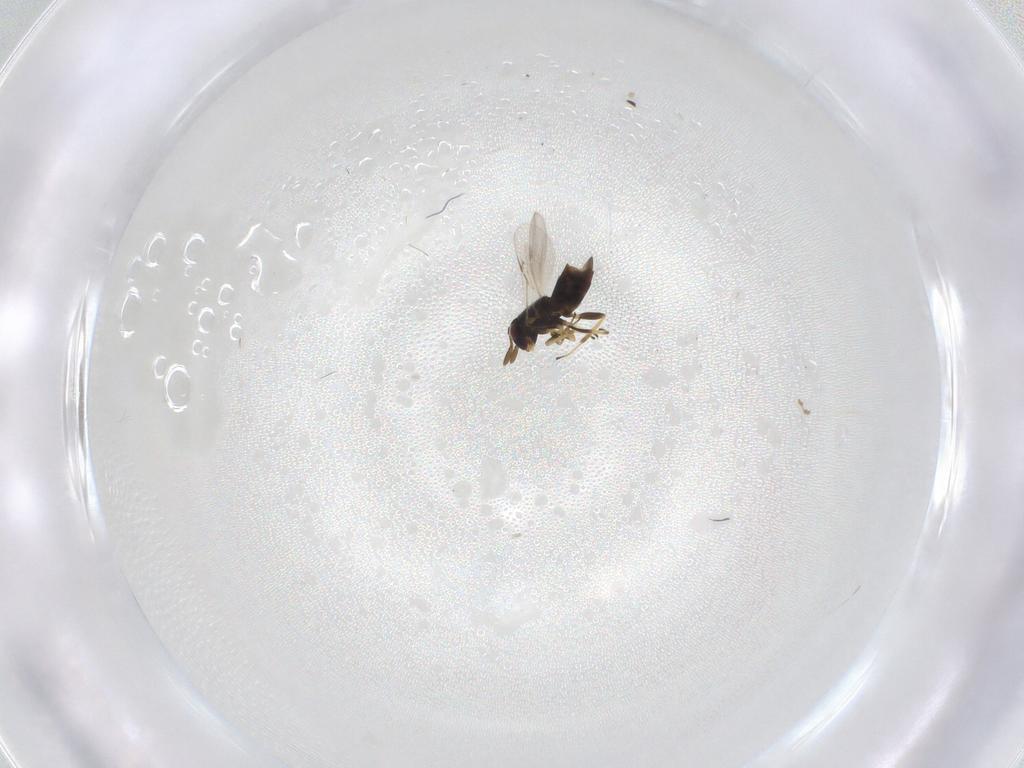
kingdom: Animalia
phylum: Arthropoda
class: Insecta
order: Hymenoptera
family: Encyrtidae
